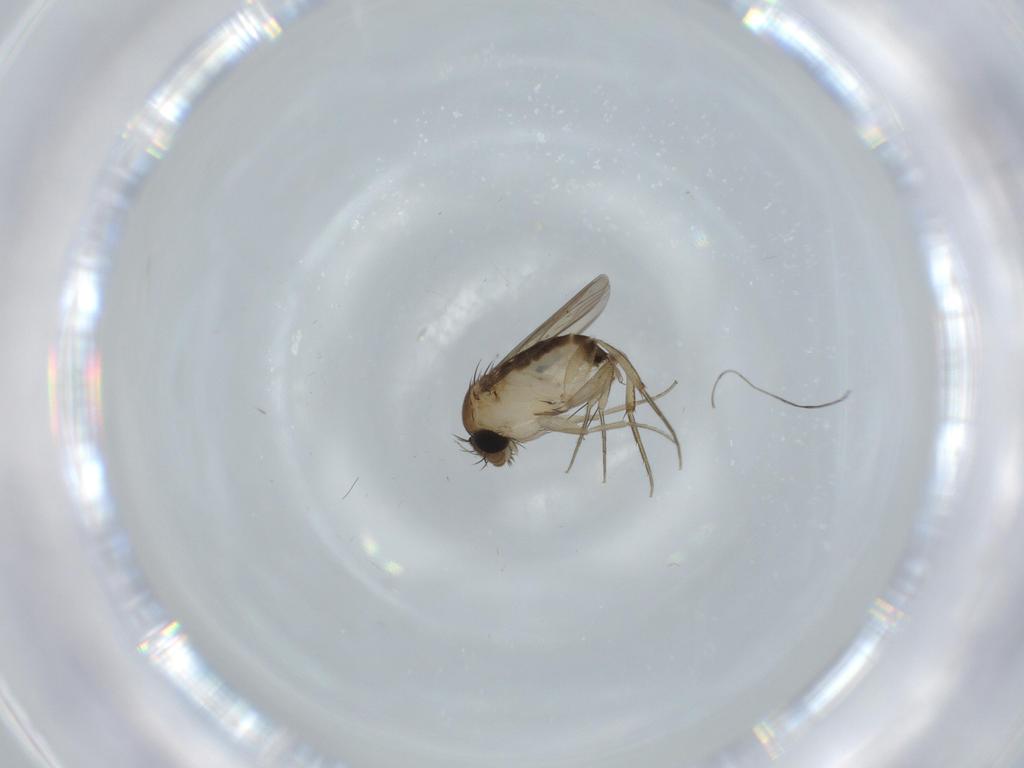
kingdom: Animalia
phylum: Arthropoda
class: Insecta
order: Diptera
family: Phoridae
